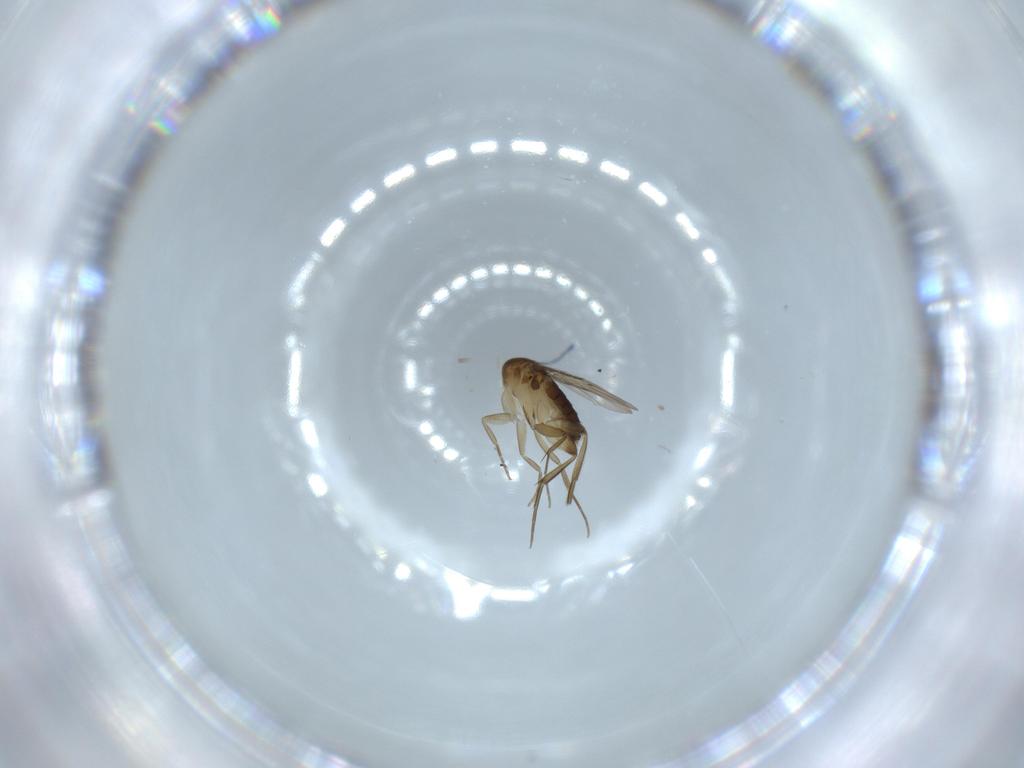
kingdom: Animalia
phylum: Arthropoda
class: Insecta
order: Diptera
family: Phoridae
